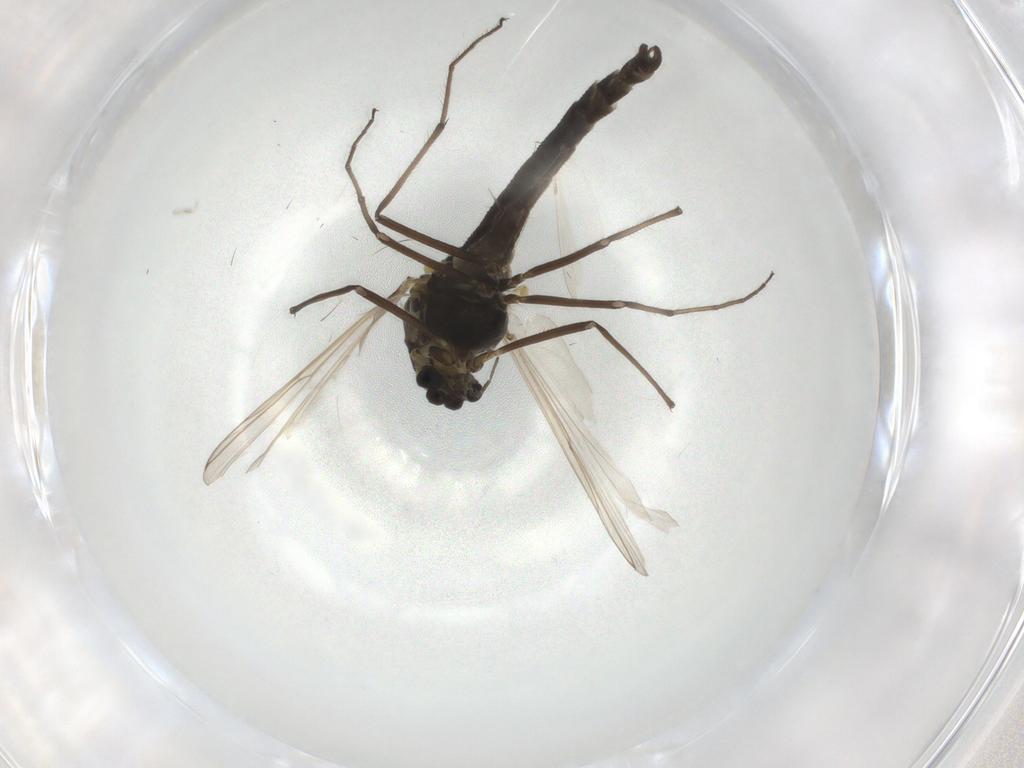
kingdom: Animalia
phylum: Arthropoda
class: Insecta
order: Diptera
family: Scathophagidae
